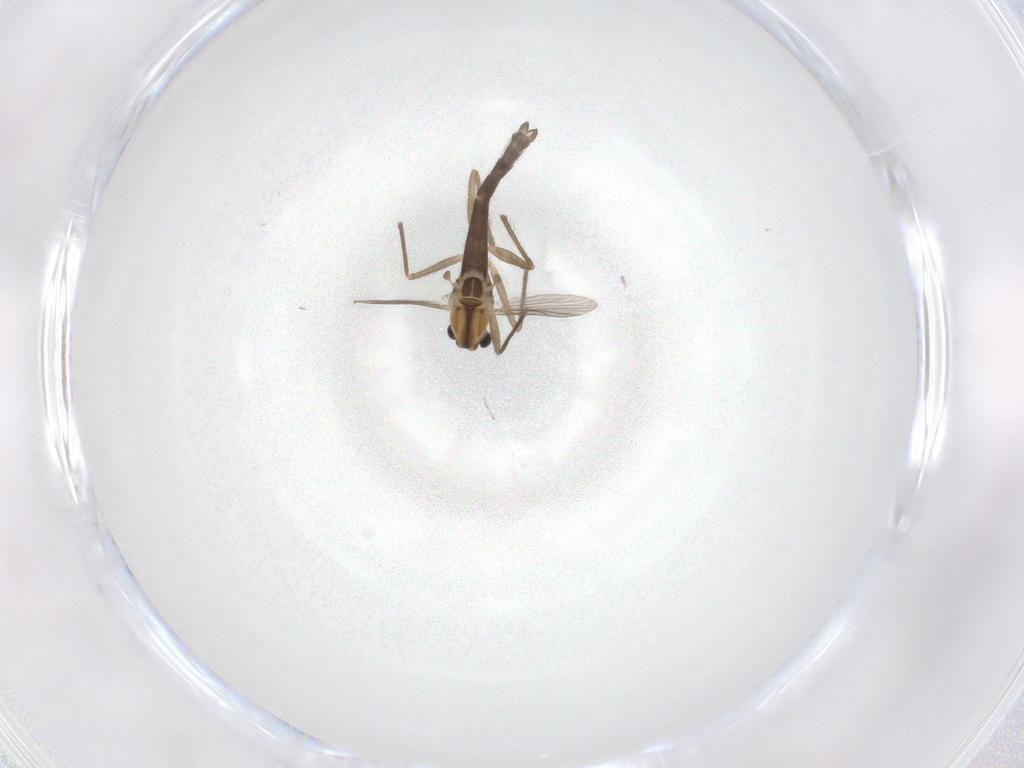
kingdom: Animalia
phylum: Arthropoda
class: Insecta
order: Diptera
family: Chironomidae
